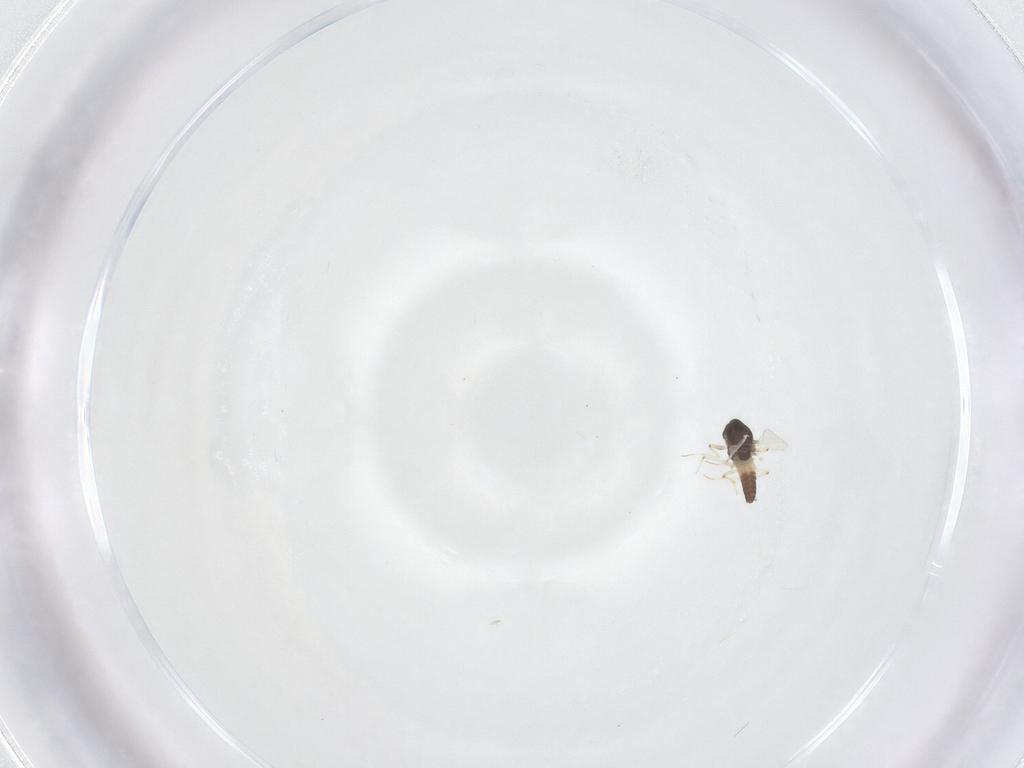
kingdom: Animalia
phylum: Arthropoda
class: Insecta
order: Diptera
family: Chironomidae
